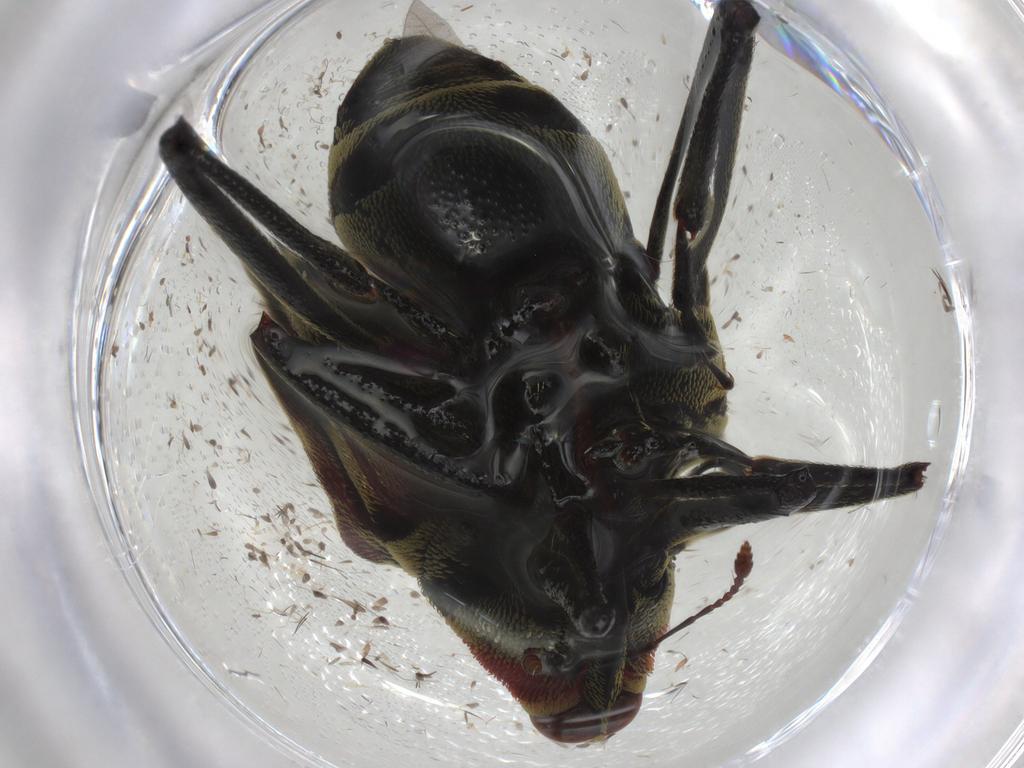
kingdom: Animalia
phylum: Arthropoda
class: Insecta
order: Coleoptera
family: Curculionidae
